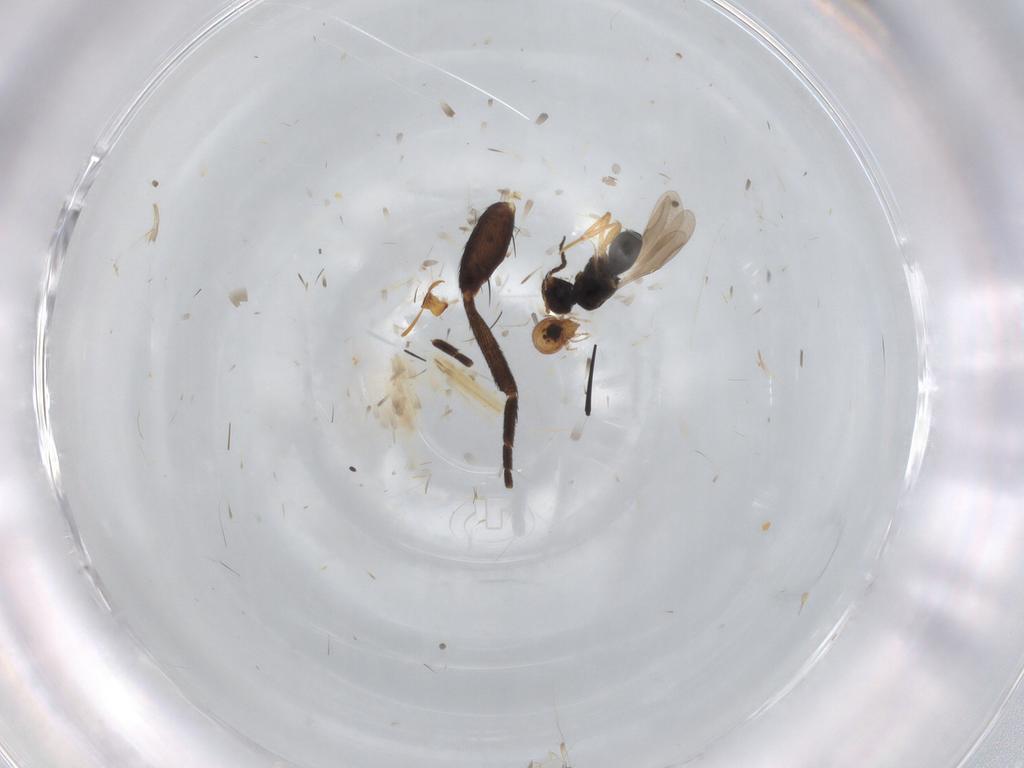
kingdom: Animalia
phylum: Arthropoda
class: Insecta
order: Coleoptera
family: Anthribidae
